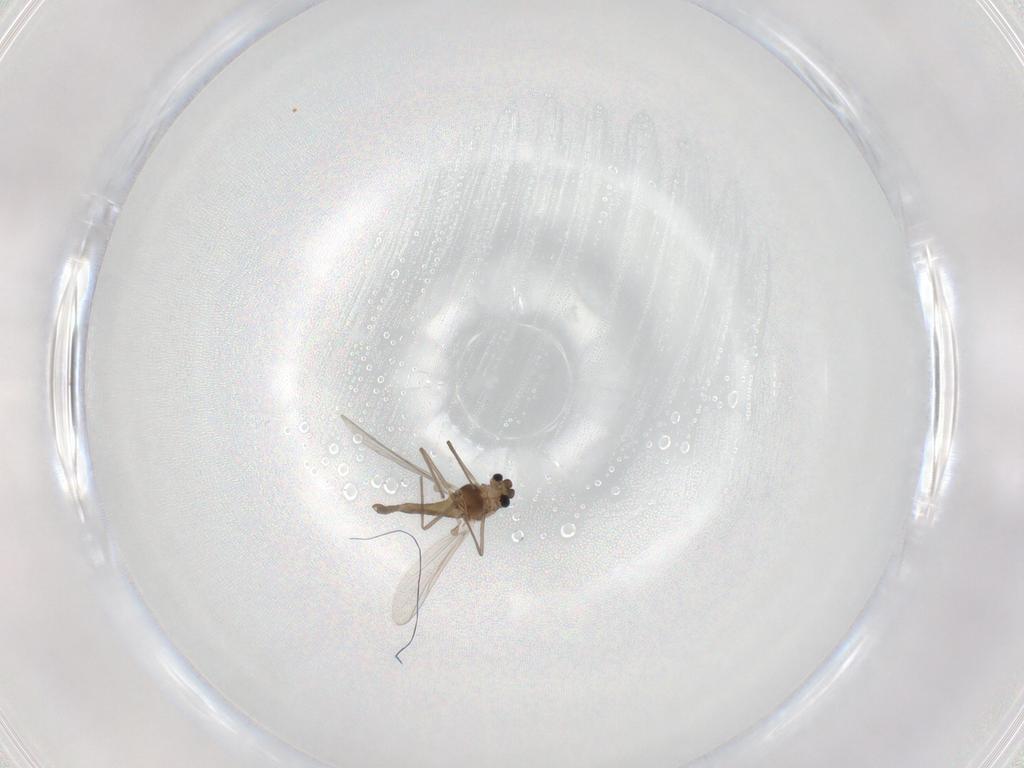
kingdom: Animalia
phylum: Arthropoda
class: Insecta
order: Diptera
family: Chironomidae
